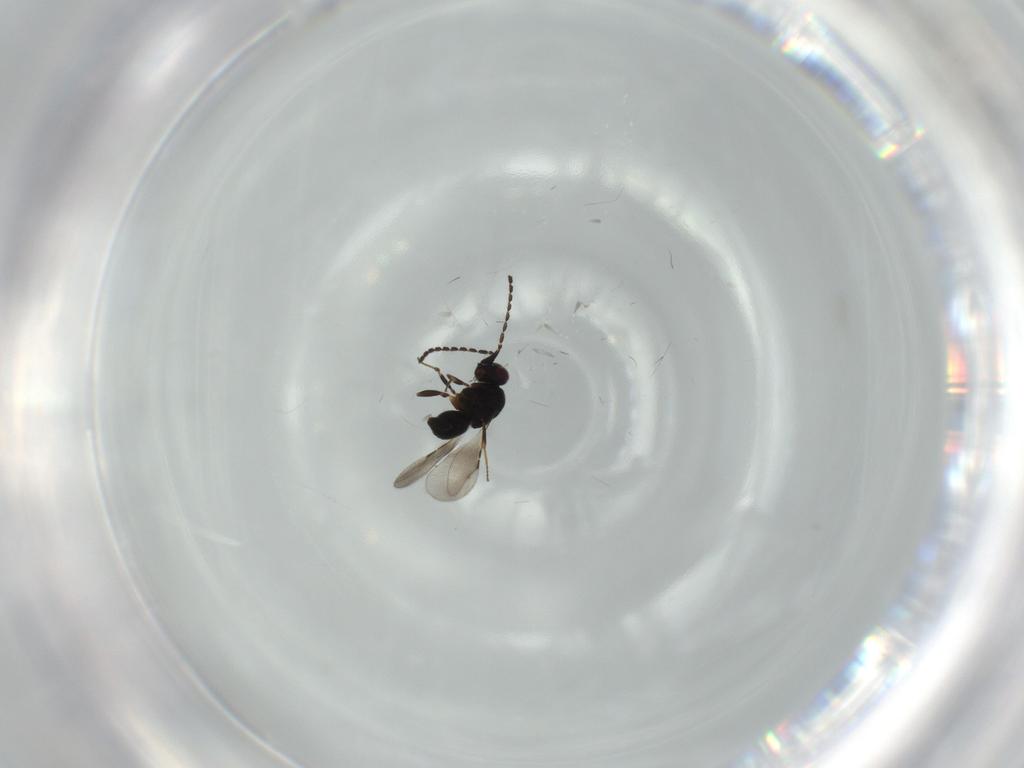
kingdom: Animalia
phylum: Arthropoda
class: Insecta
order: Hymenoptera
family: Ceraphronidae
